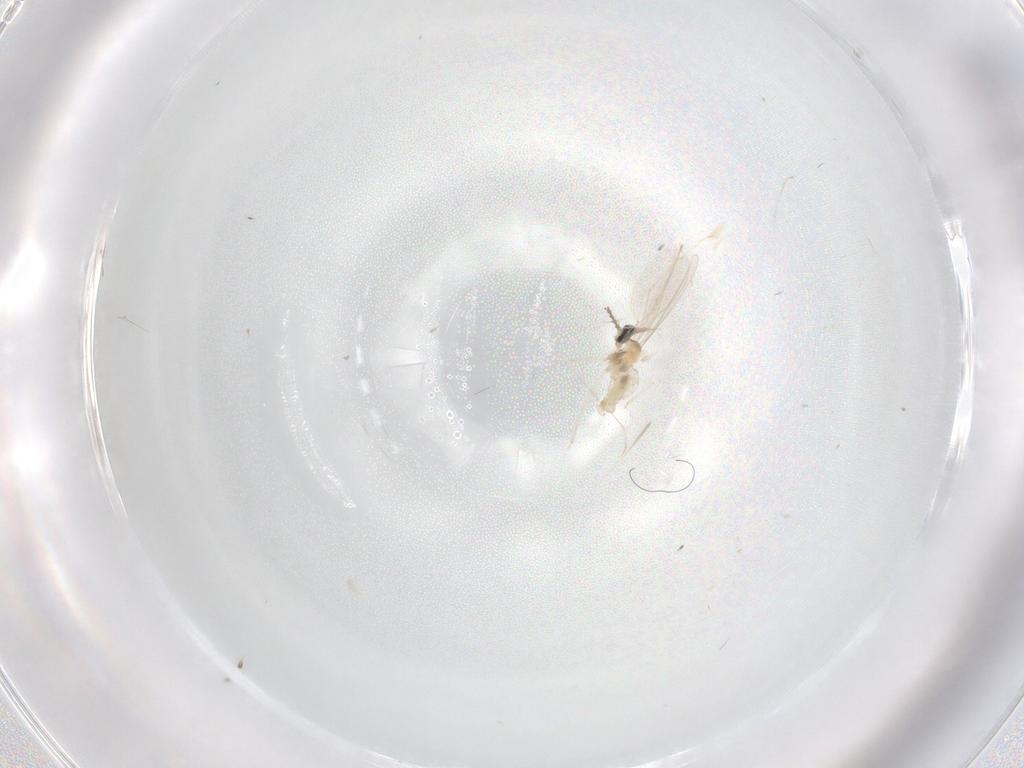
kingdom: Animalia
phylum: Arthropoda
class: Insecta
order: Diptera
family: Cecidomyiidae
